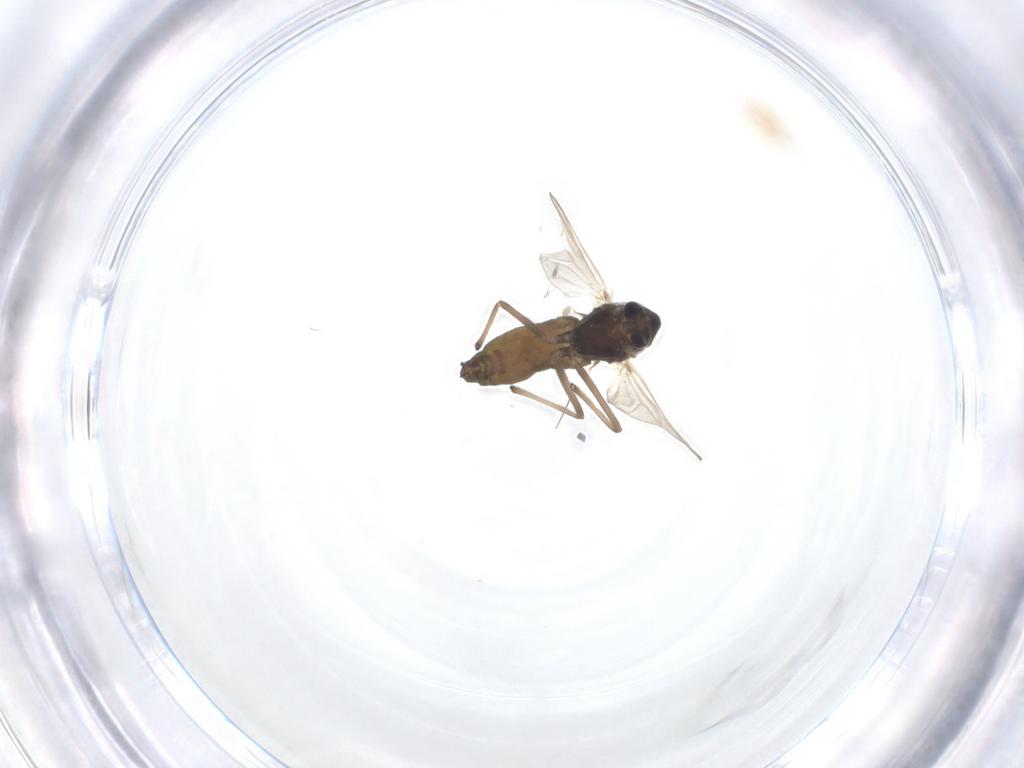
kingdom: Animalia
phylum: Arthropoda
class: Insecta
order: Diptera
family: Chironomidae
